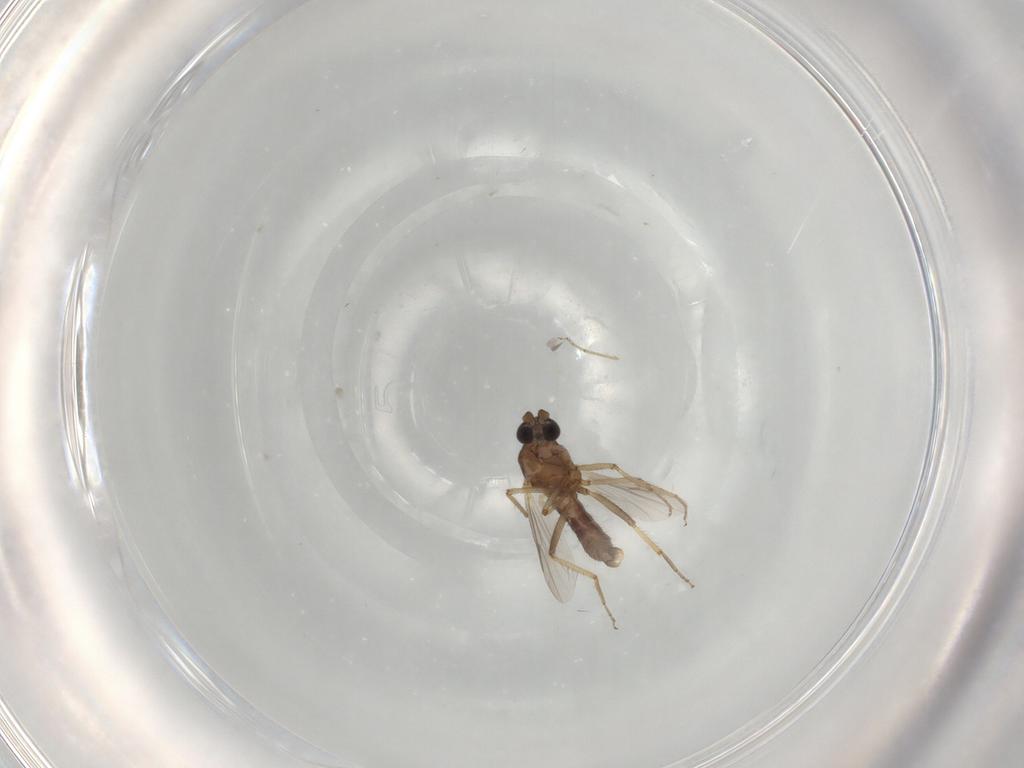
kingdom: Animalia
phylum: Arthropoda
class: Insecta
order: Diptera
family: Ceratopogonidae
